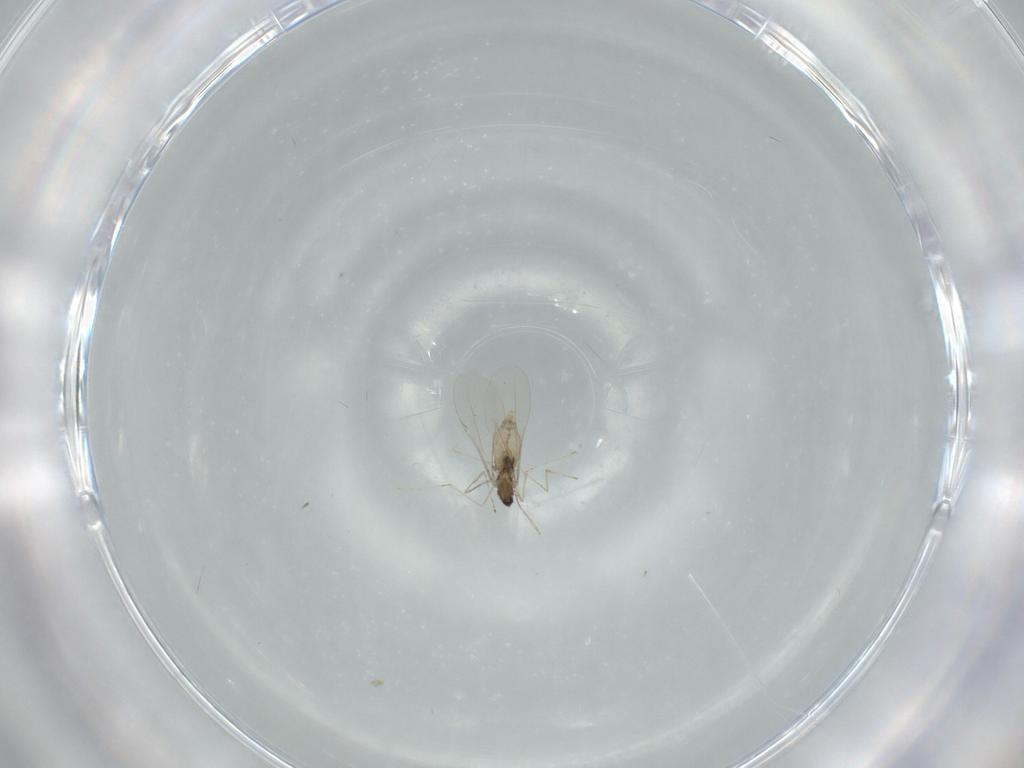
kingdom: Animalia
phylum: Arthropoda
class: Insecta
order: Diptera
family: Cecidomyiidae
